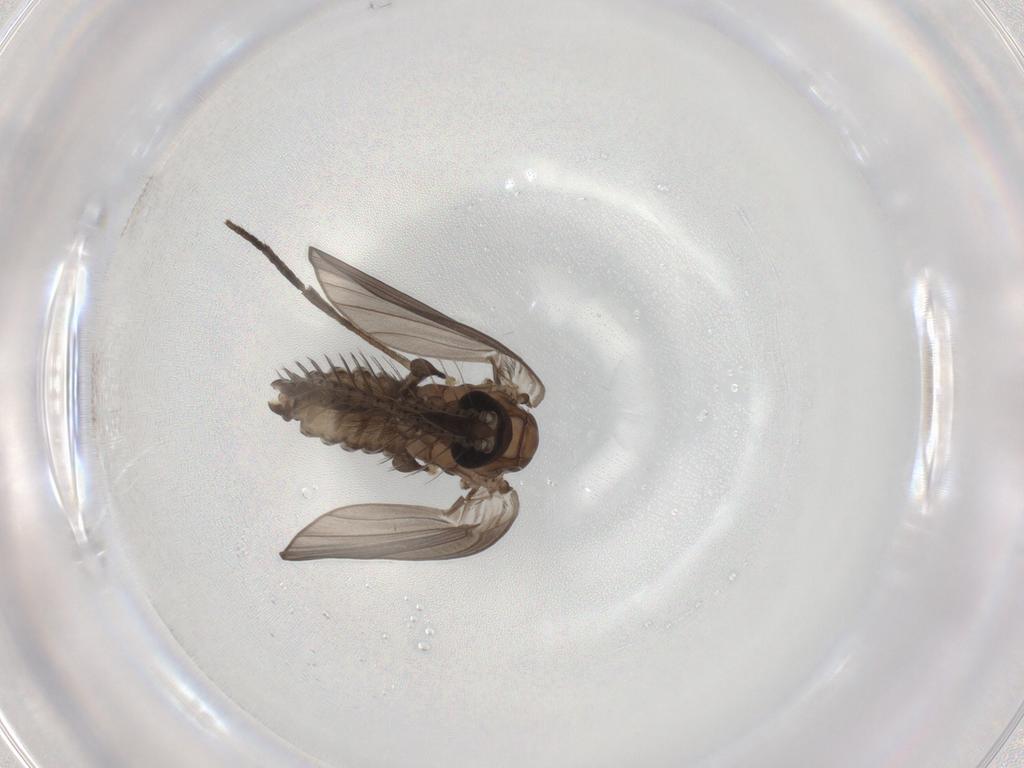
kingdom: Animalia
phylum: Arthropoda
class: Insecta
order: Diptera
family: Psychodidae
